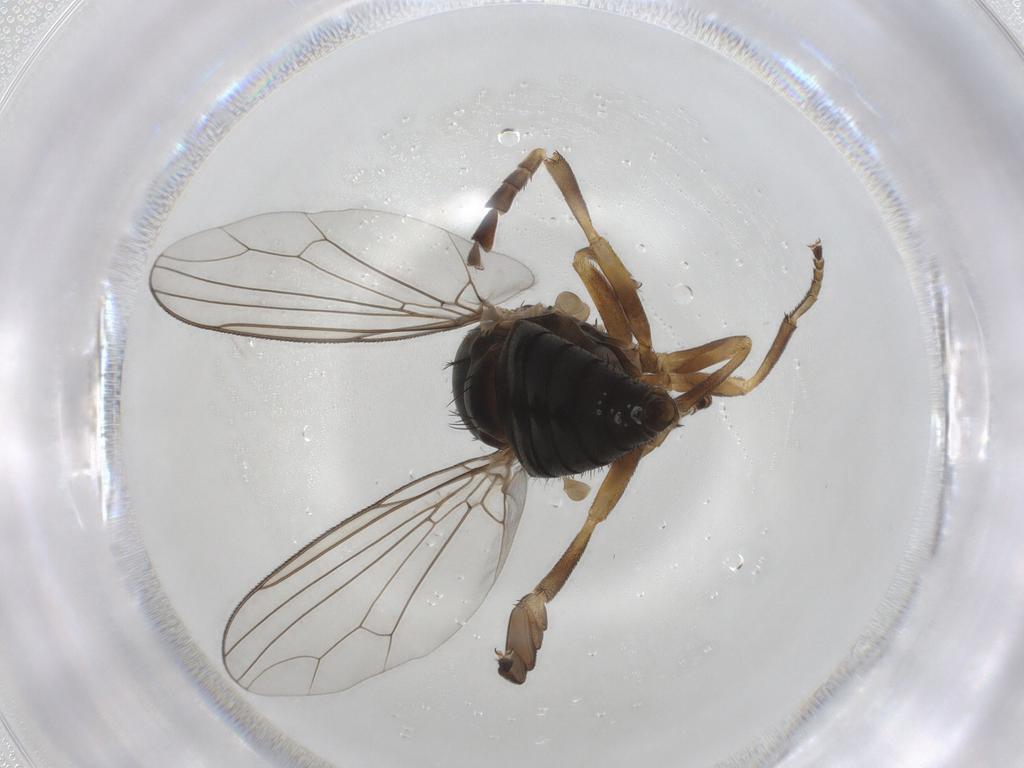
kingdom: Animalia
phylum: Arthropoda
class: Insecta
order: Diptera
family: Platypezidae
